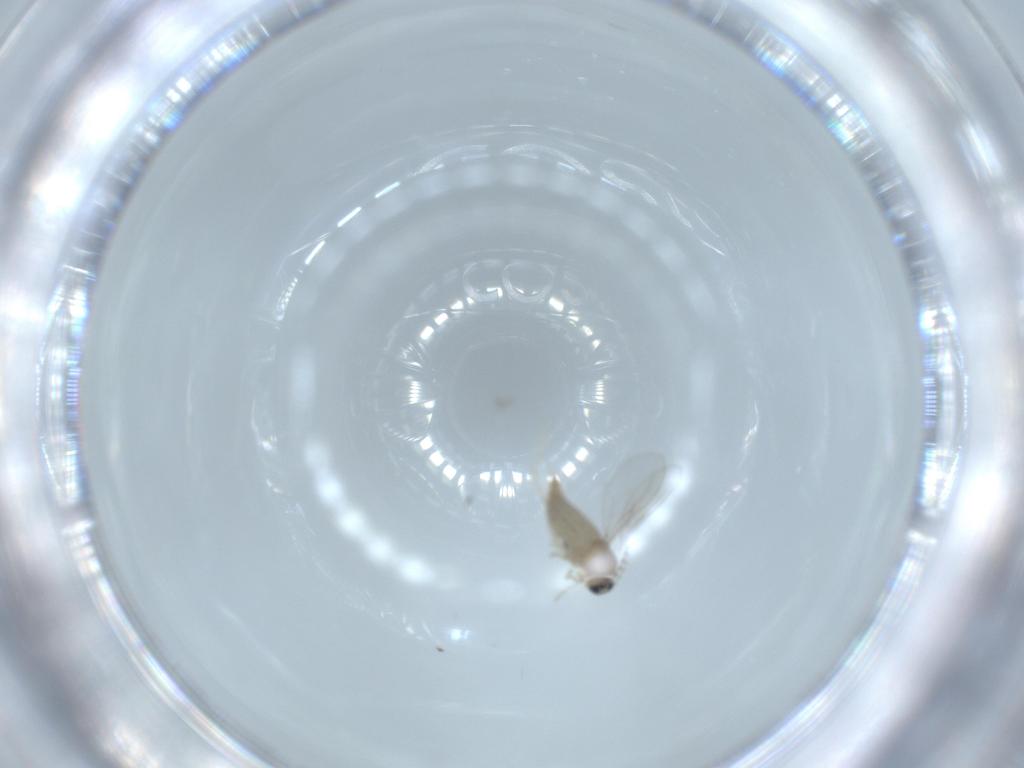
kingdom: Animalia
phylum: Arthropoda
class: Insecta
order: Diptera
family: Cecidomyiidae
